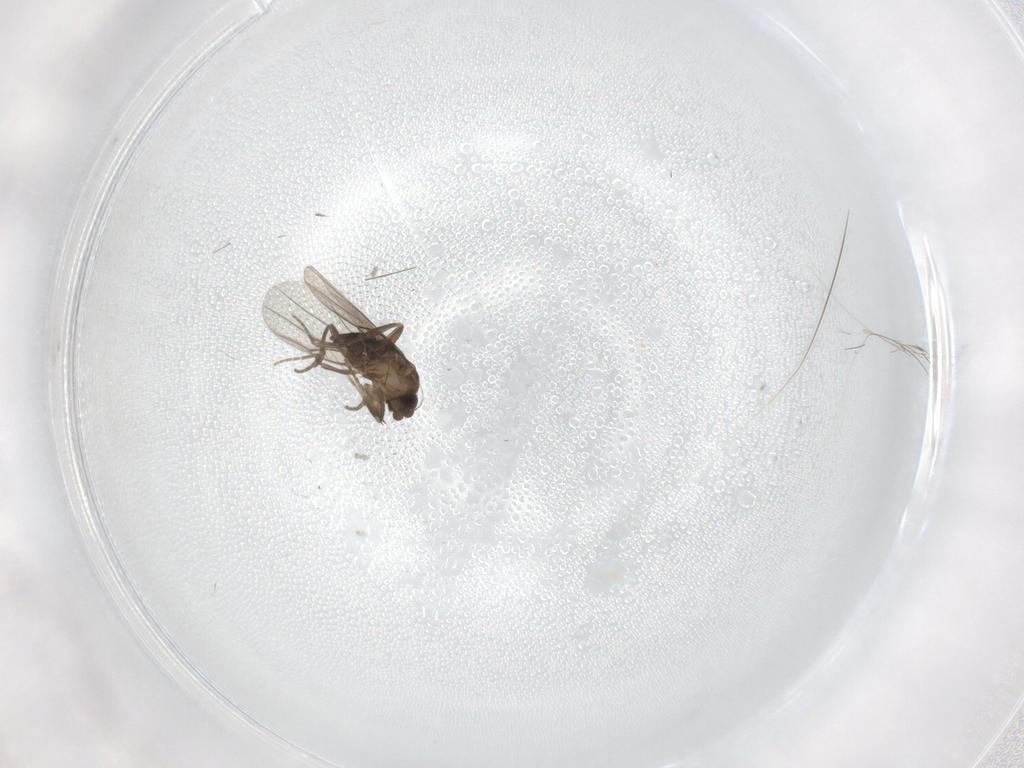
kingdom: Animalia
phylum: Arthropoda
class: Insecta
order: Diptera
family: Phoridae
